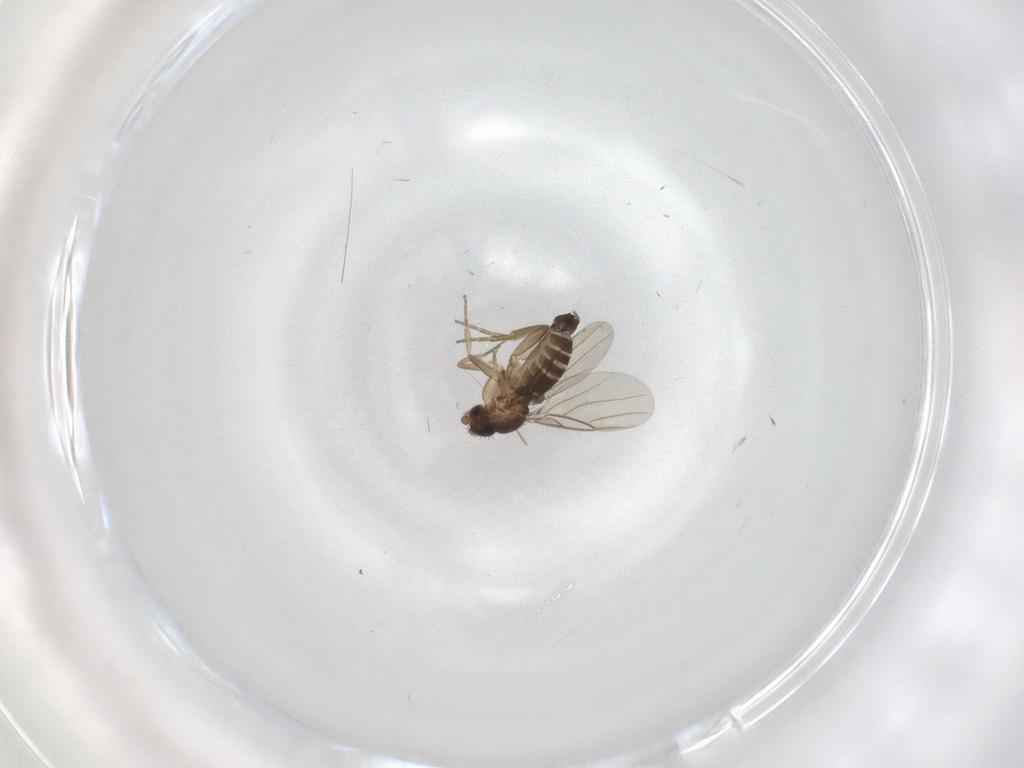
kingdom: Animalia
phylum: Arthropoda
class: Insecta
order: Diptera
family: Phoridae
